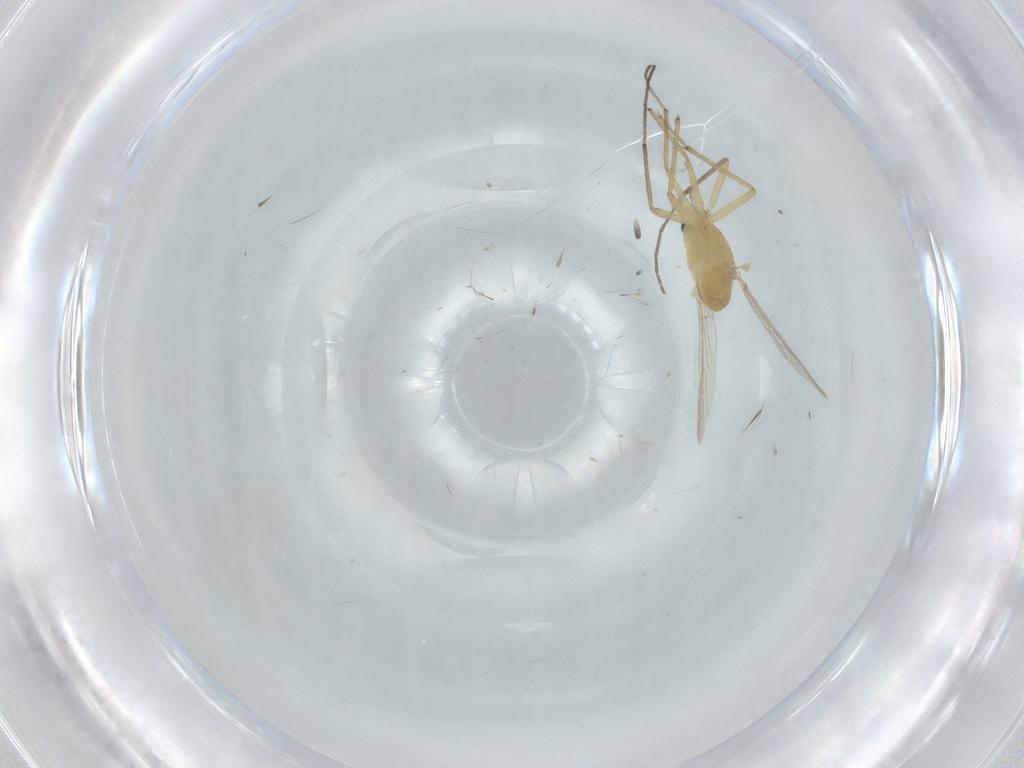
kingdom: Animalia
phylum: Arthropoda
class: Insecta
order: Diptera
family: Chironomidae
